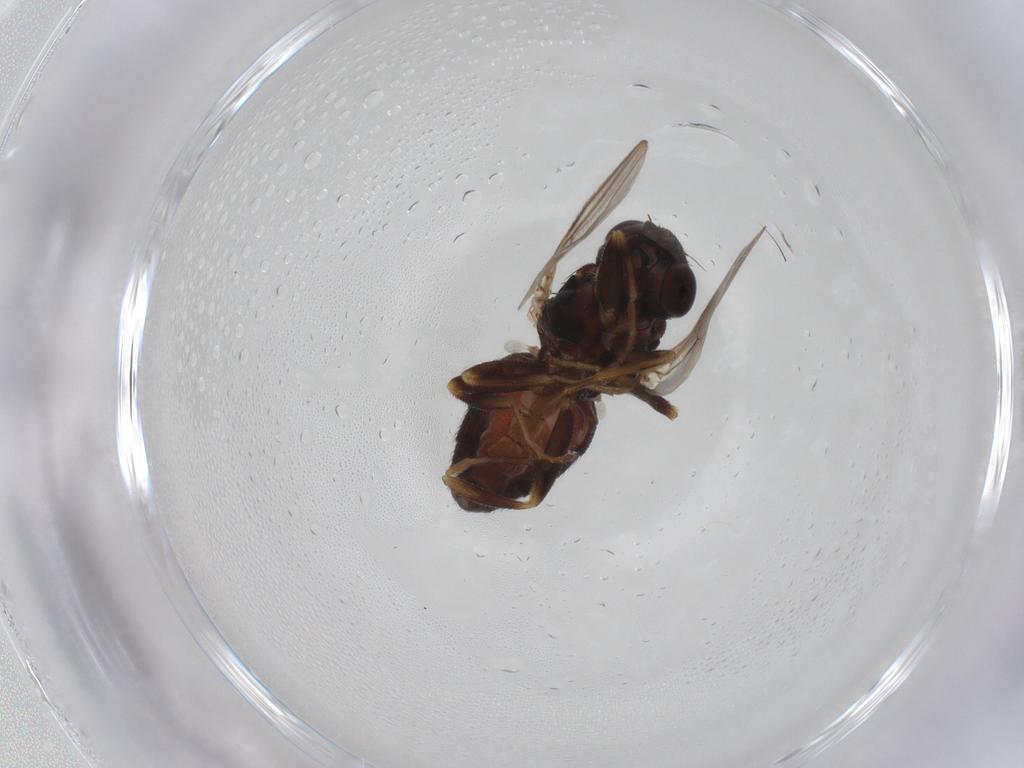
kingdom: Animalia
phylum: Arthropoda
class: Insecta
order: Diptera
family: Chloropidae
